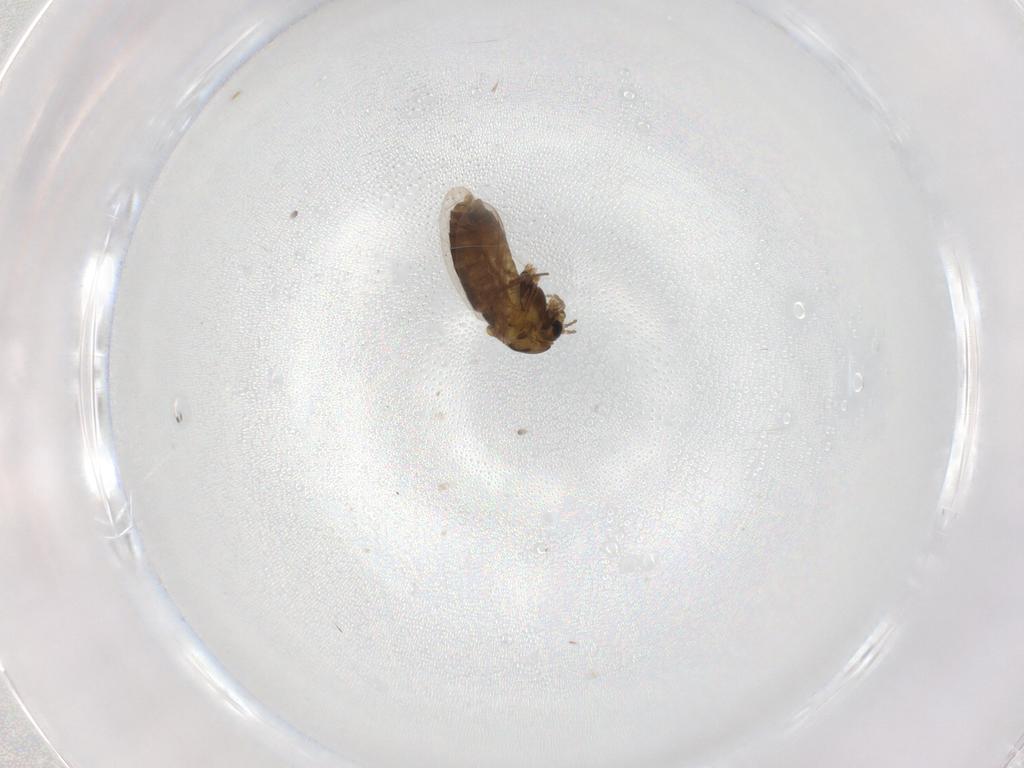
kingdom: Animalia
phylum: Arthropoda
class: Insecta
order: Diptera
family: Chironomidae
